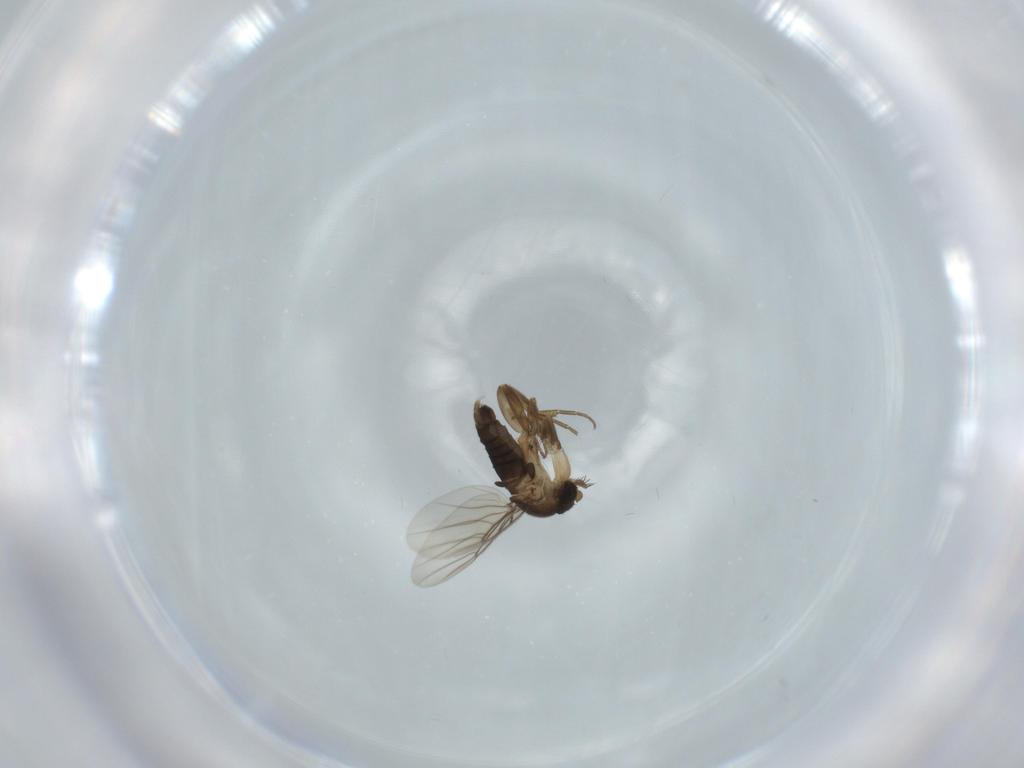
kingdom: Animalia
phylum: Arthropoda
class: Insecta
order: Diptera
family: Phoridae
